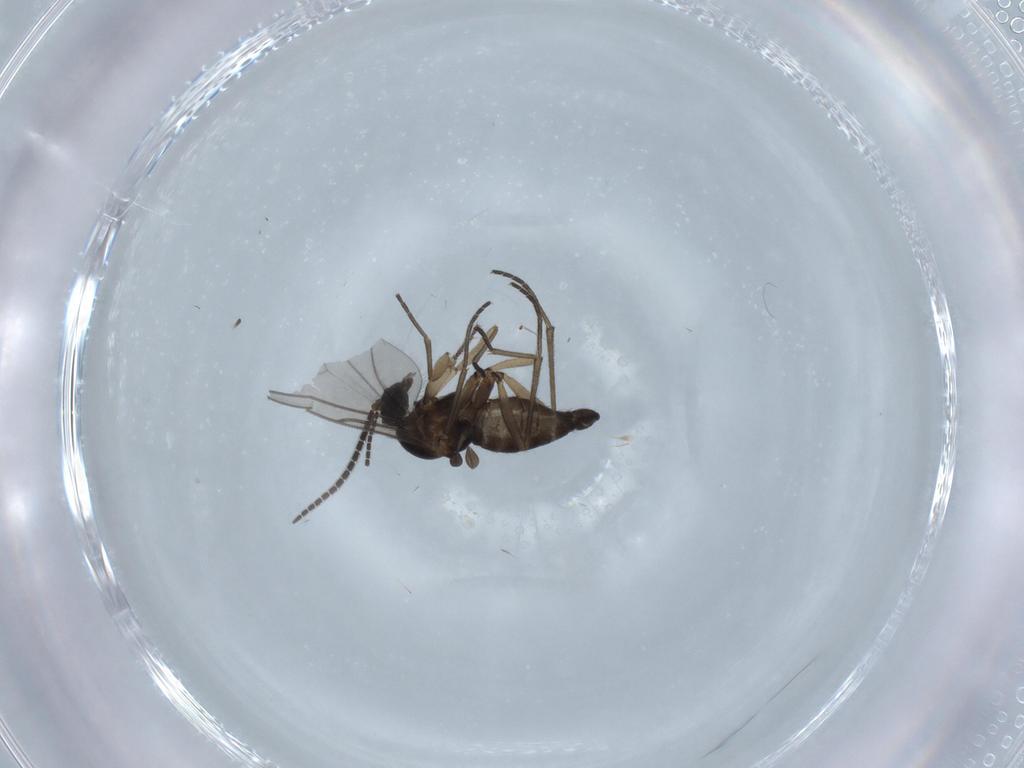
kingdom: Animalia
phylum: Arthropoda
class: Insecta
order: Diptera
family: Sciaridae
